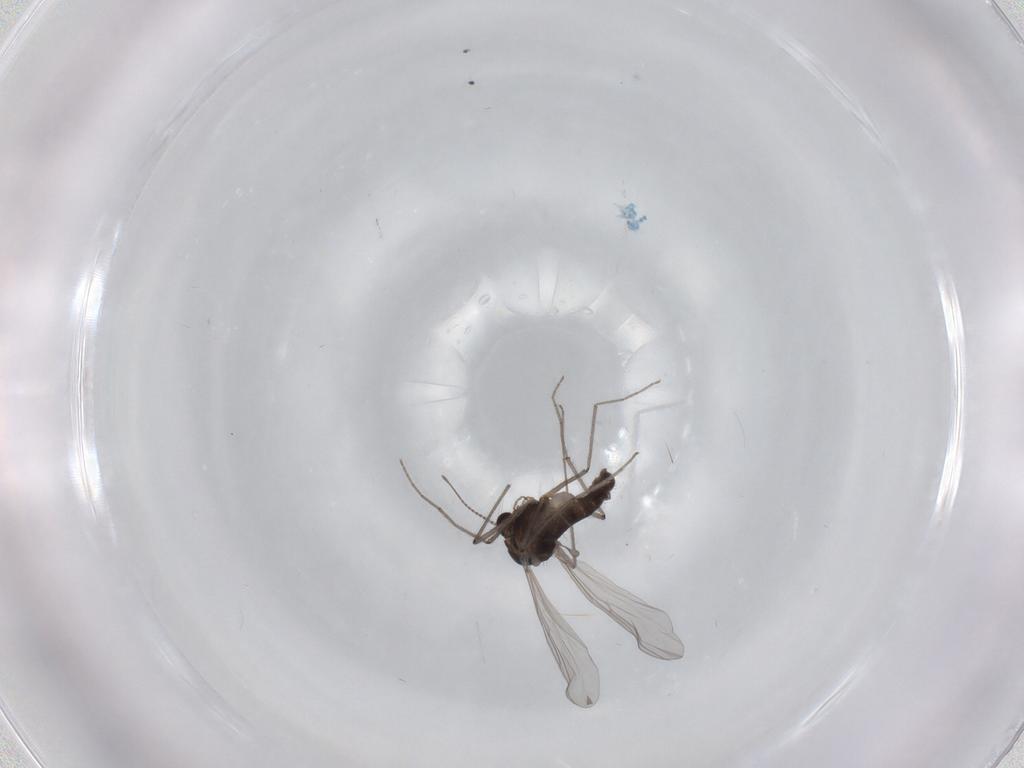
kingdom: Animalia
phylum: Arthropoda
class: Insecta
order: Diptera
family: Chironomidae
